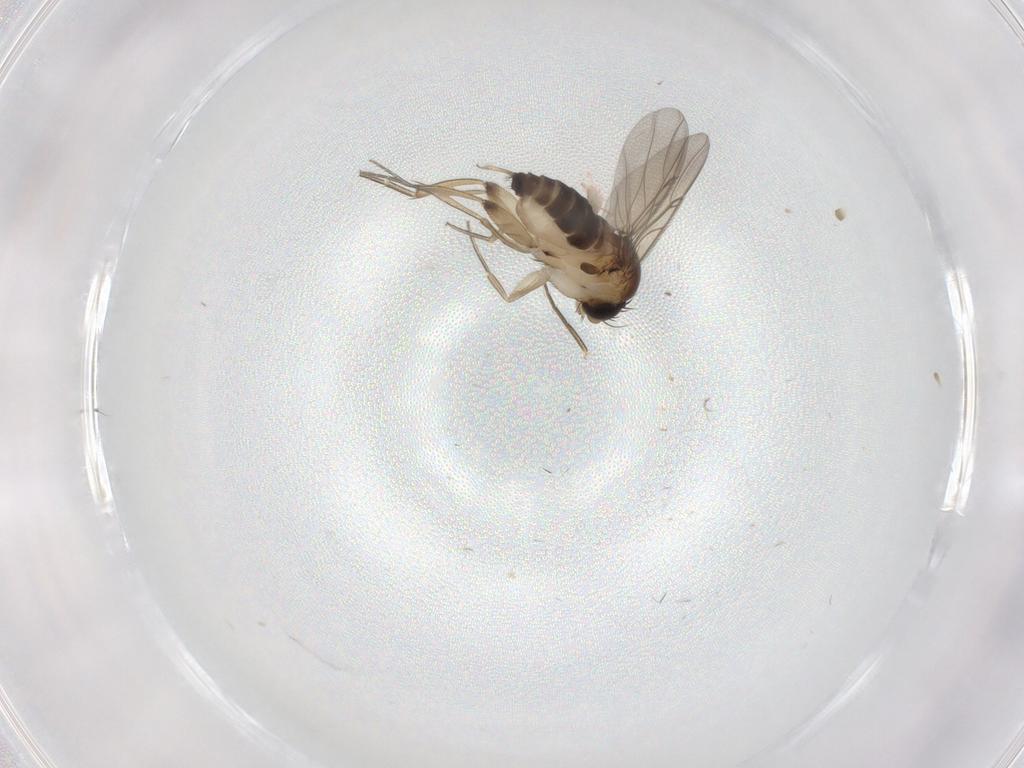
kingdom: Animalia
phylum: Arthropoda
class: Insecta
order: Diptera
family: Phoridae
